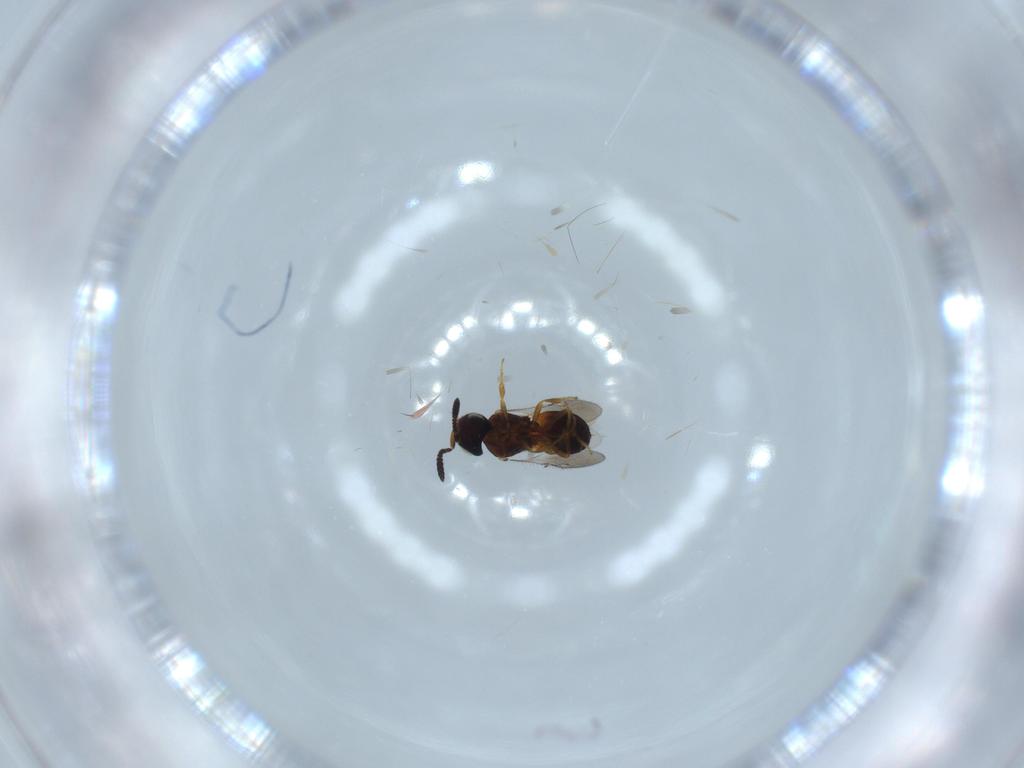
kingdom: Animalia
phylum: Arthropoda
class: Insecta
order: Hymenoptera
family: Scelionidae
